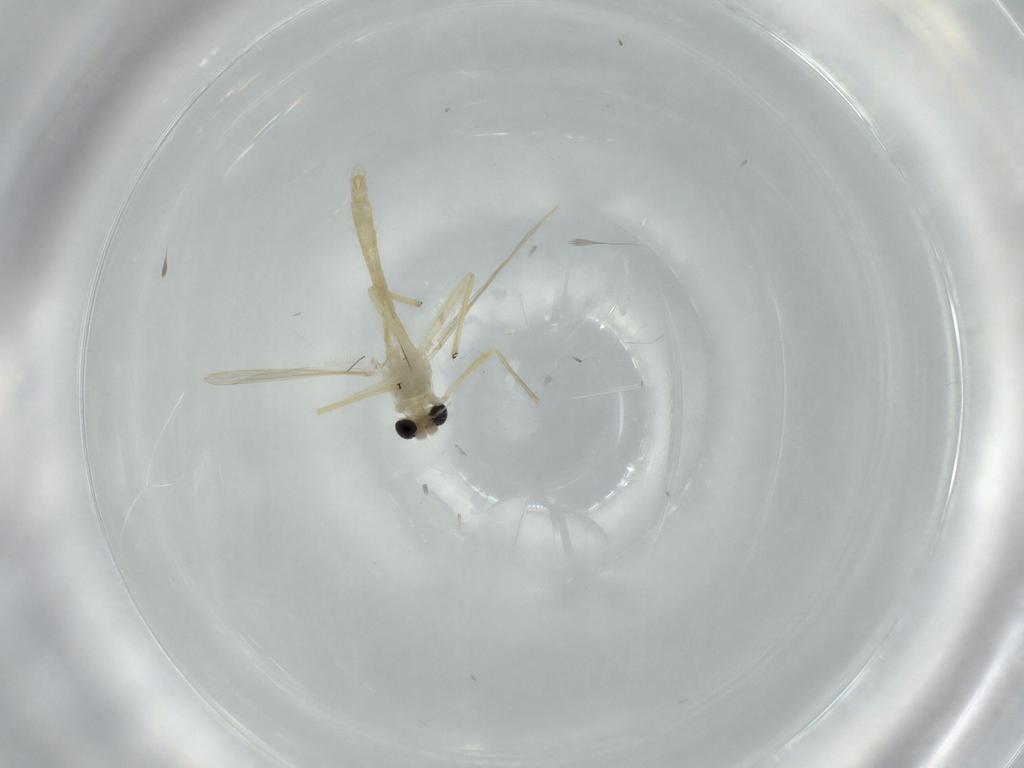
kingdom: Animalia
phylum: Arthropoda
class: Insecta
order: Diptera
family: Chironomidae
